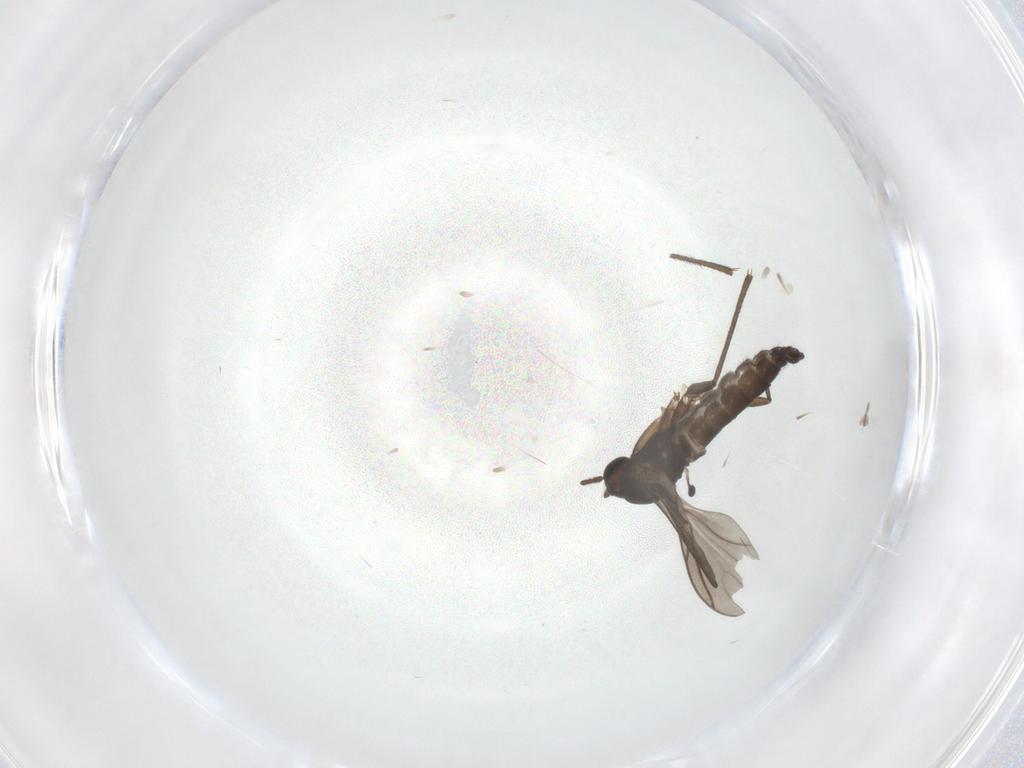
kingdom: Animalia
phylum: Arthropoda
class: Insecta
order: Diptera
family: Sciaridae
